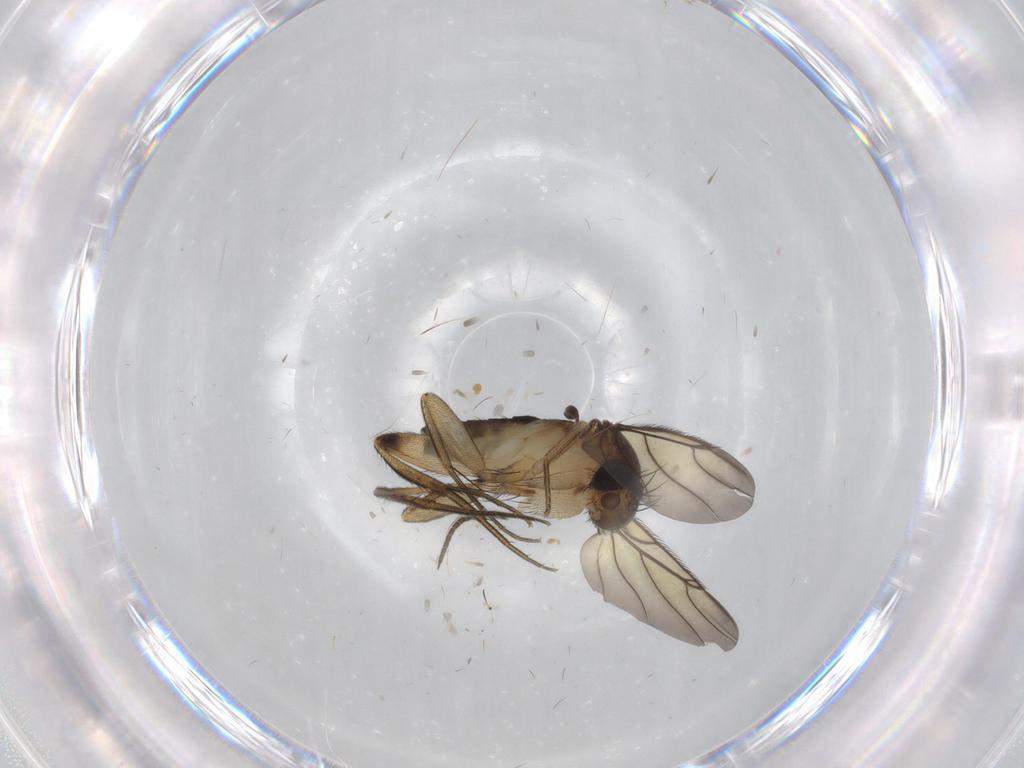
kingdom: Animalia
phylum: Arthropoda
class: Insecta
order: Diptera
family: Phoridae
